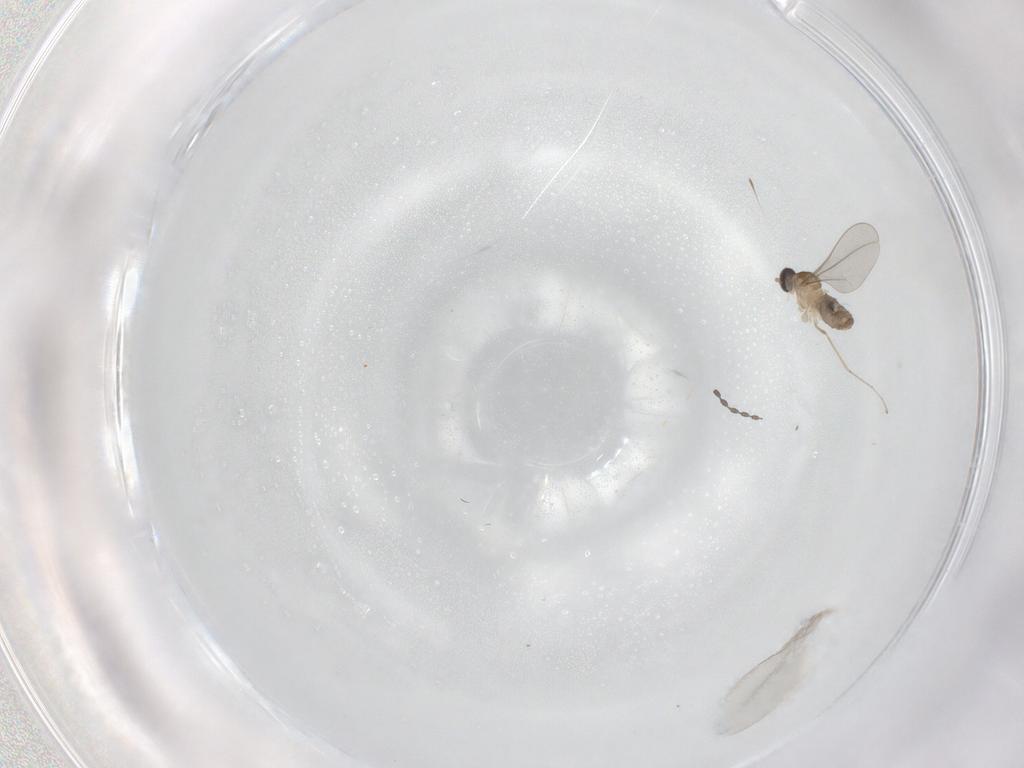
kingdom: Animalia
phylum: Arthropoda
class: Insecta
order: Diptera
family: Cecidomyiidae
